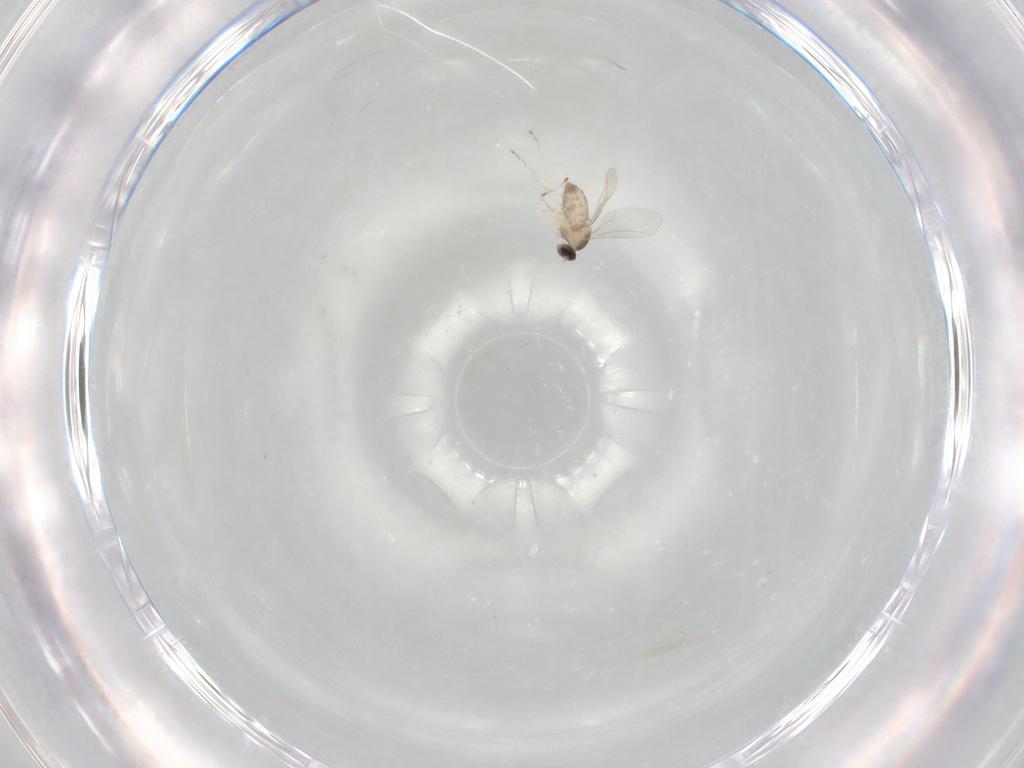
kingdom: Animalia
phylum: Arthropoda
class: Insecta
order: Diptera
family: Cecidomyiidae
